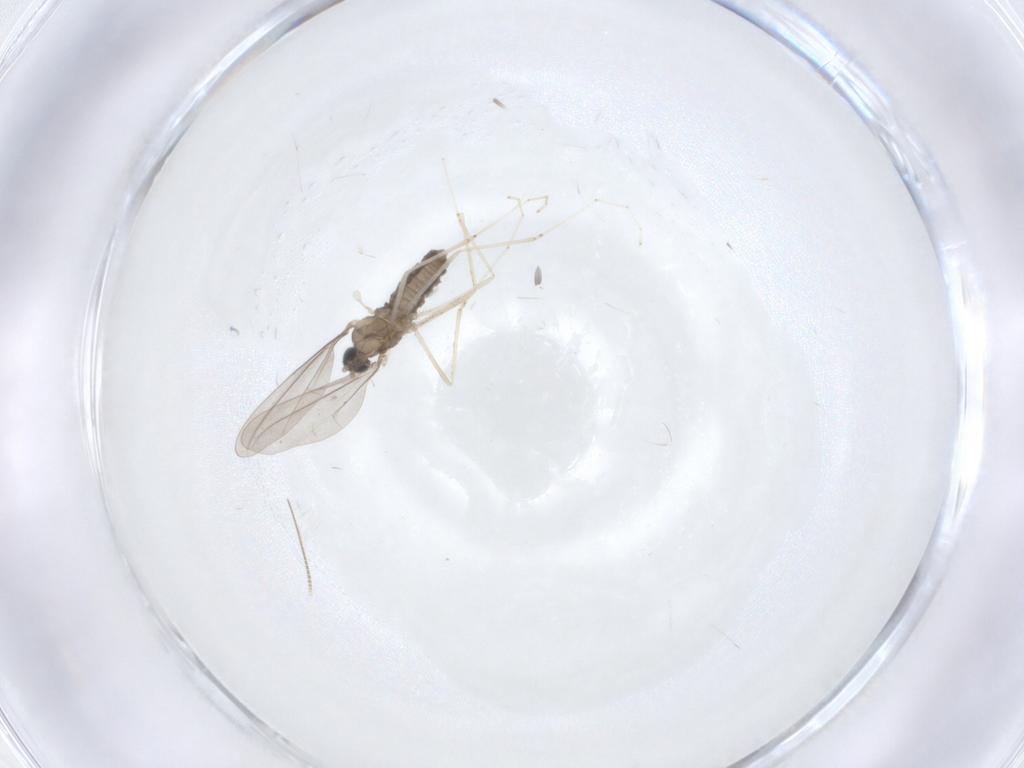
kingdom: Animalia
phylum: Arthropoda
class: Insecta
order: Diptera
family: Cecidomyiidae
